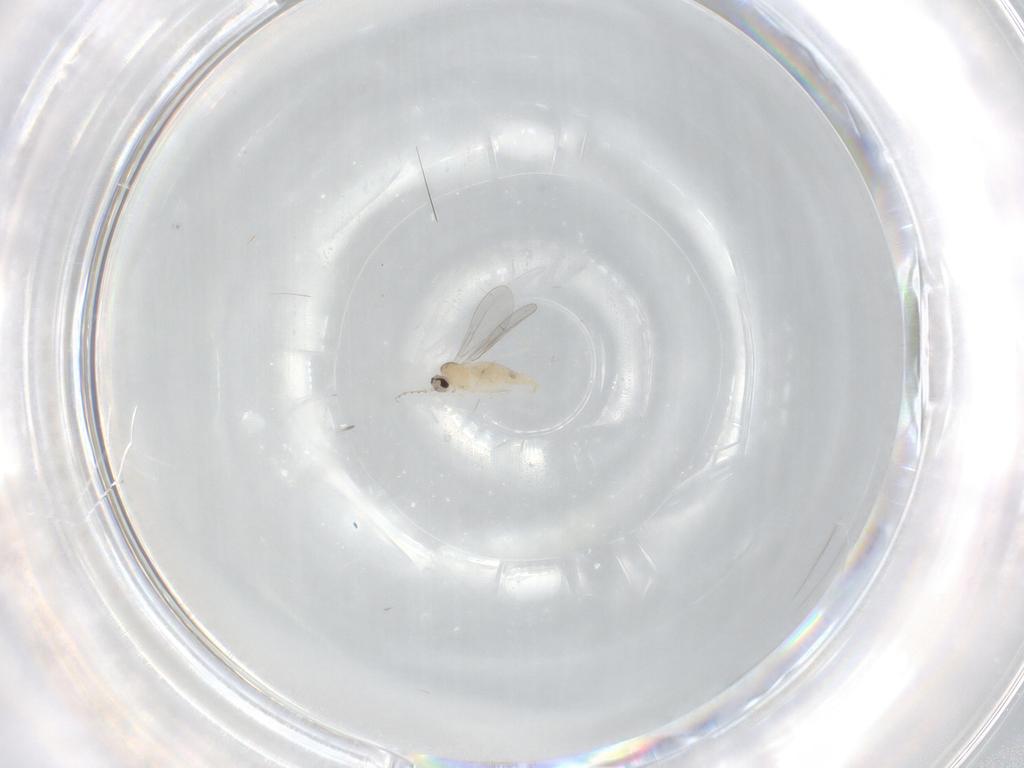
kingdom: Animalia
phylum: Arthropoda
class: Insecta
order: Diptera
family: Cecidomyiidae
